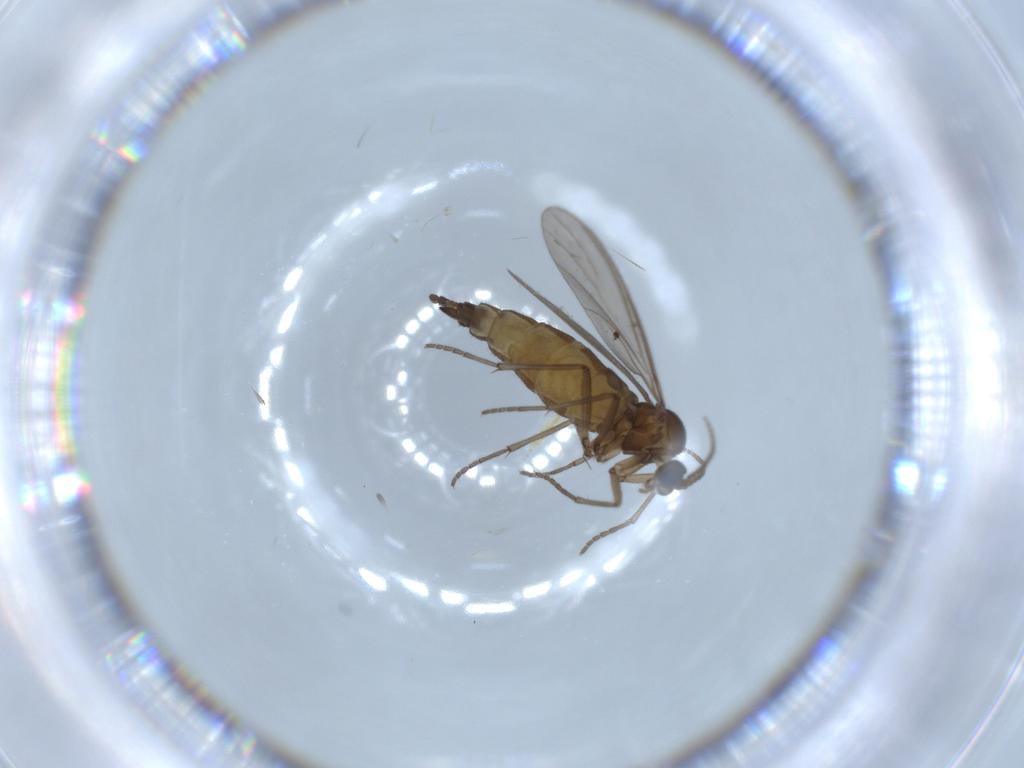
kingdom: Animalia
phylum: Arthropoda
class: Insecta
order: Diptera
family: Sciaridae
